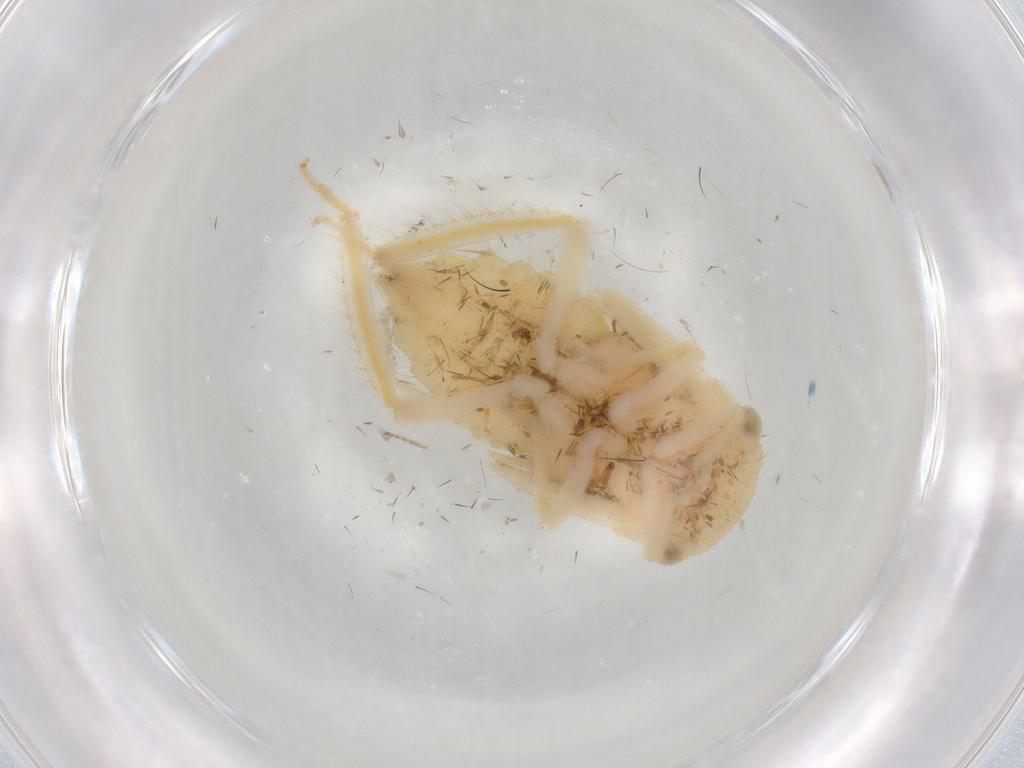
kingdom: Animalia
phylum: Arthropoda
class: Insecta
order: Hemiptera
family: Cicadellidae
